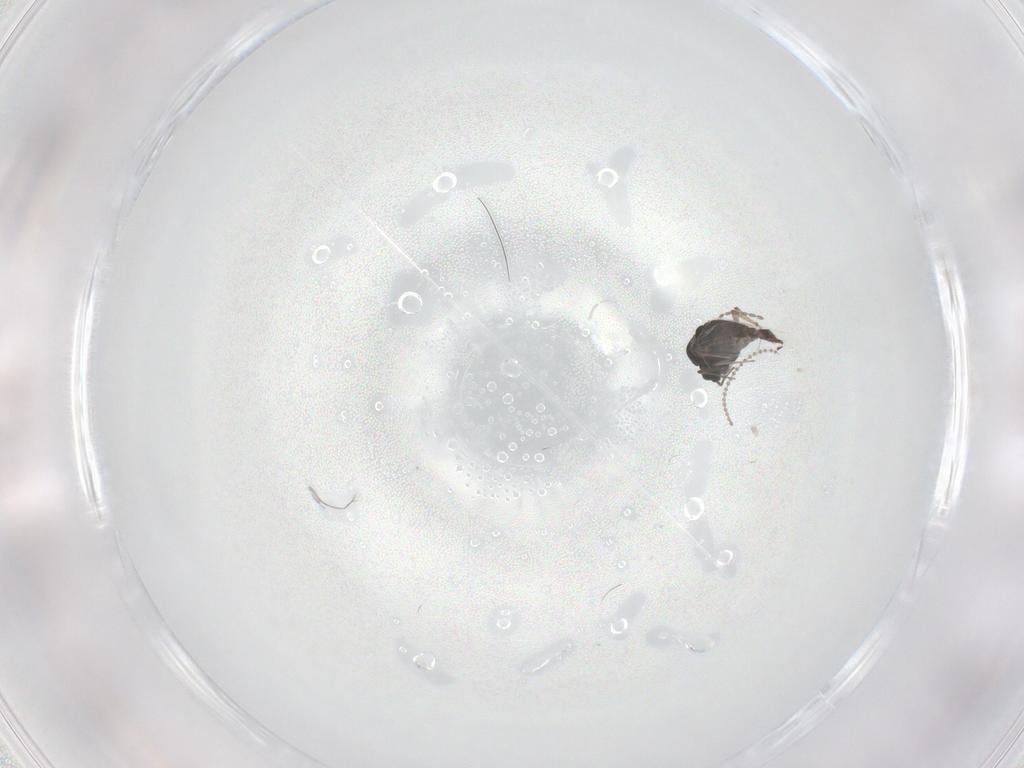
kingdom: Animalia
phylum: Arthropoda
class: Insecta
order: Diptera
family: Chironomidae
